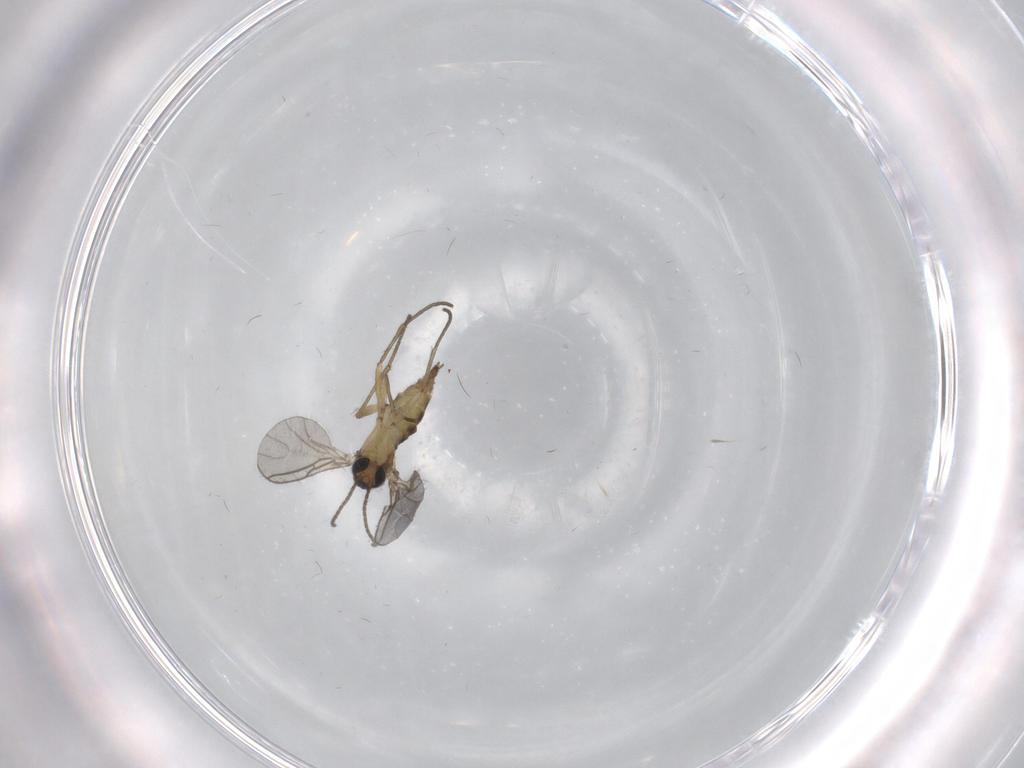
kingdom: Animalia
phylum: Arthropoda
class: Insecta
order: Diptera
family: Sciaridae
